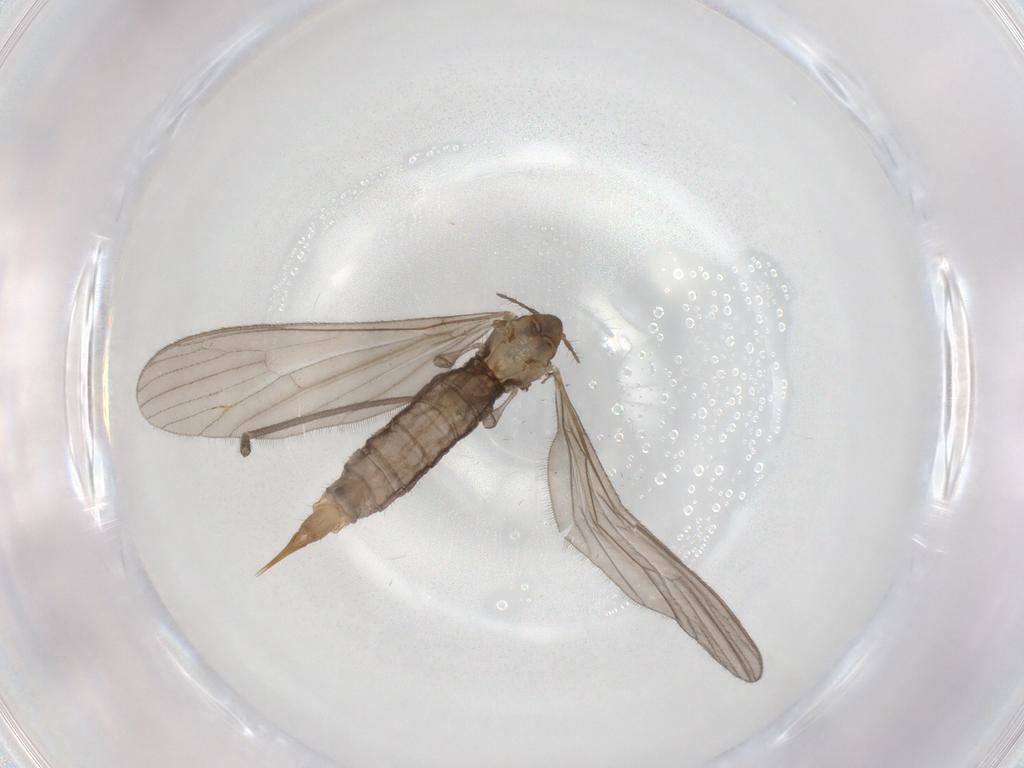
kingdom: Animalia
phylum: Arthropoda
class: Insecta
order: Diptera
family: Limoniidae
